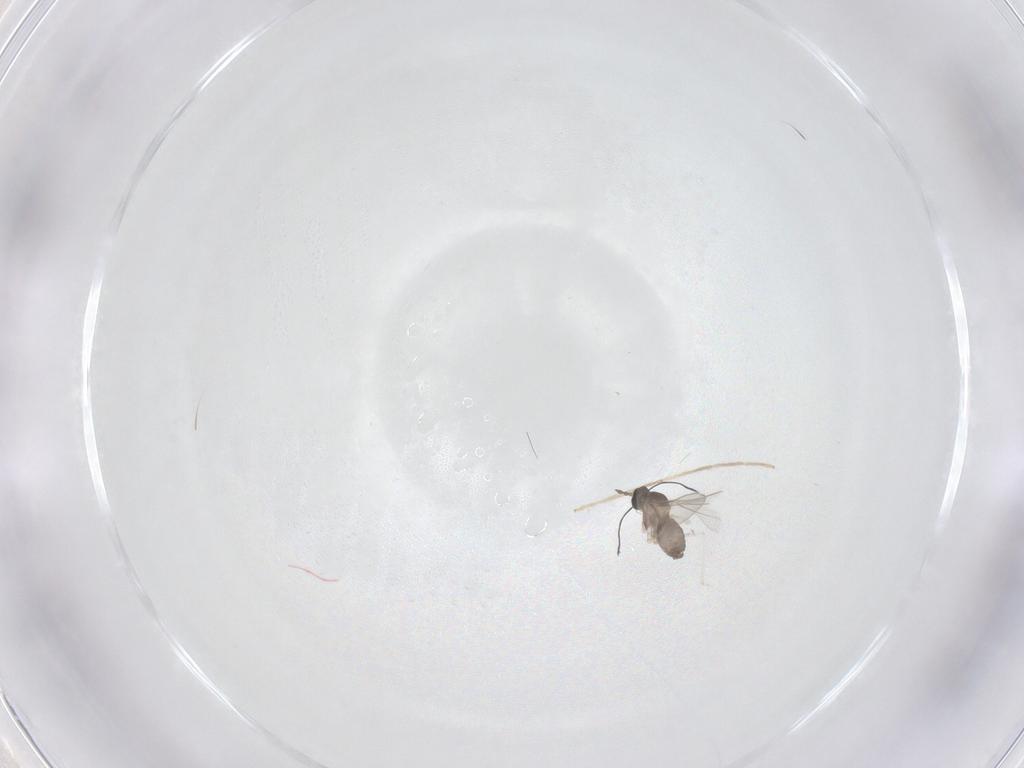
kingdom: Animalia
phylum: Arthropoda
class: Insecta
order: Diptera
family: Chironomidae
